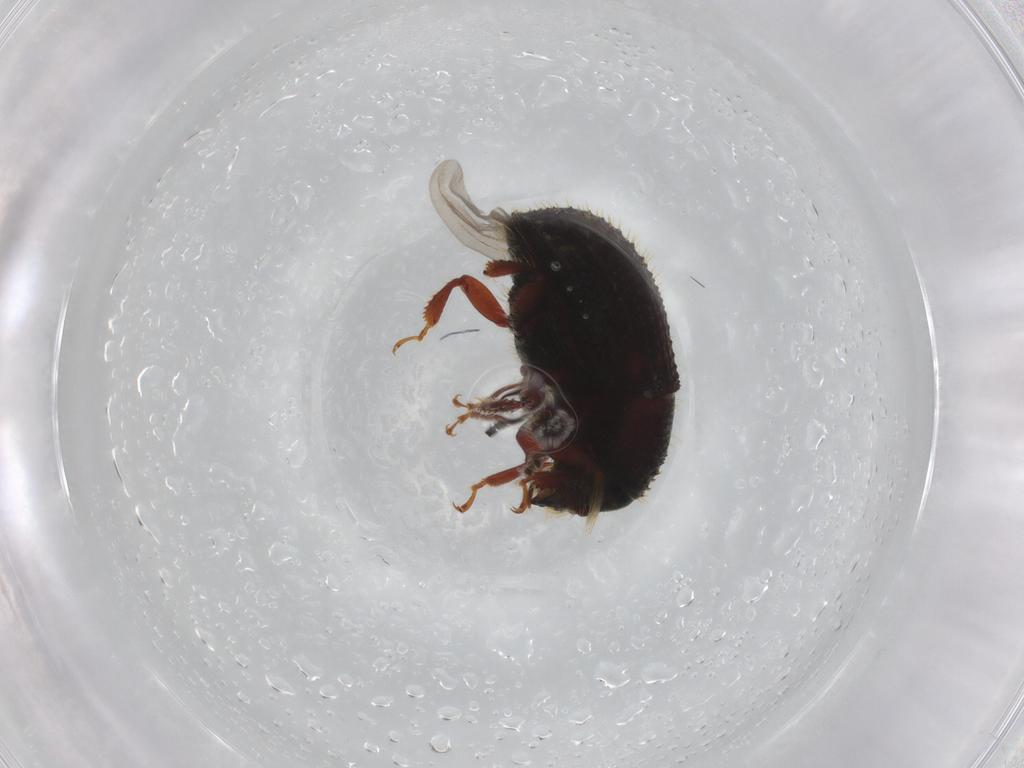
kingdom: Animalia
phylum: Arthropoda
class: Insecta
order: Coleoptera
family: Curculionidae
